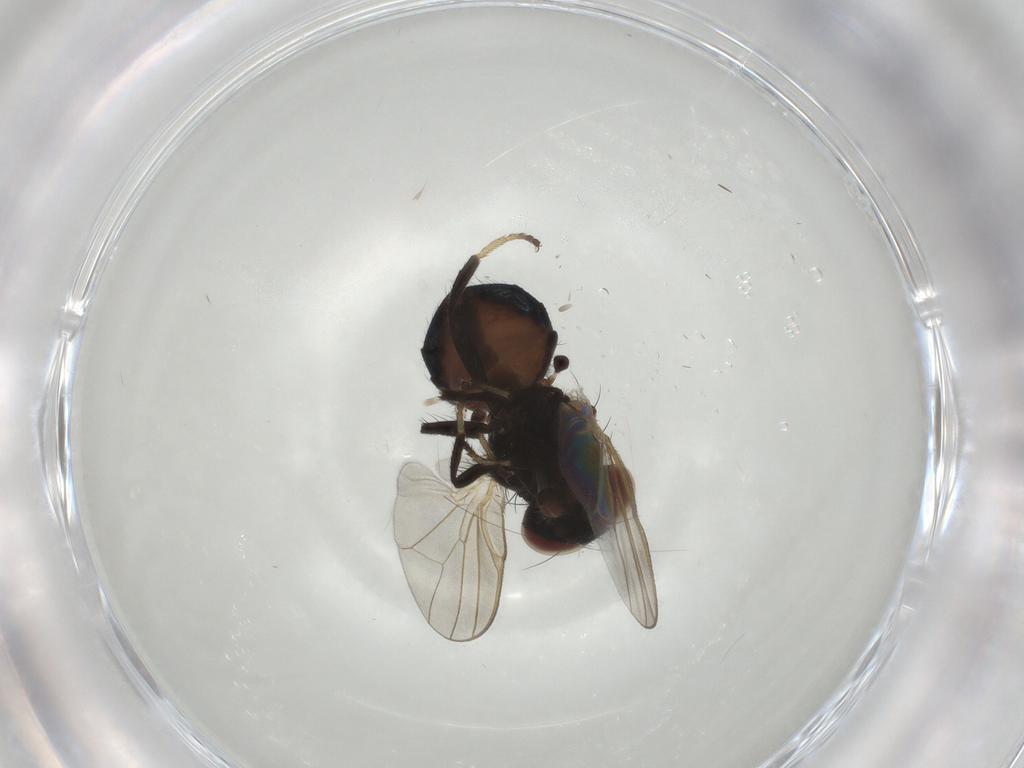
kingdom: Animalia
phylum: Arthropoda
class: Insecta
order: Diptera
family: Lonchaeidae
